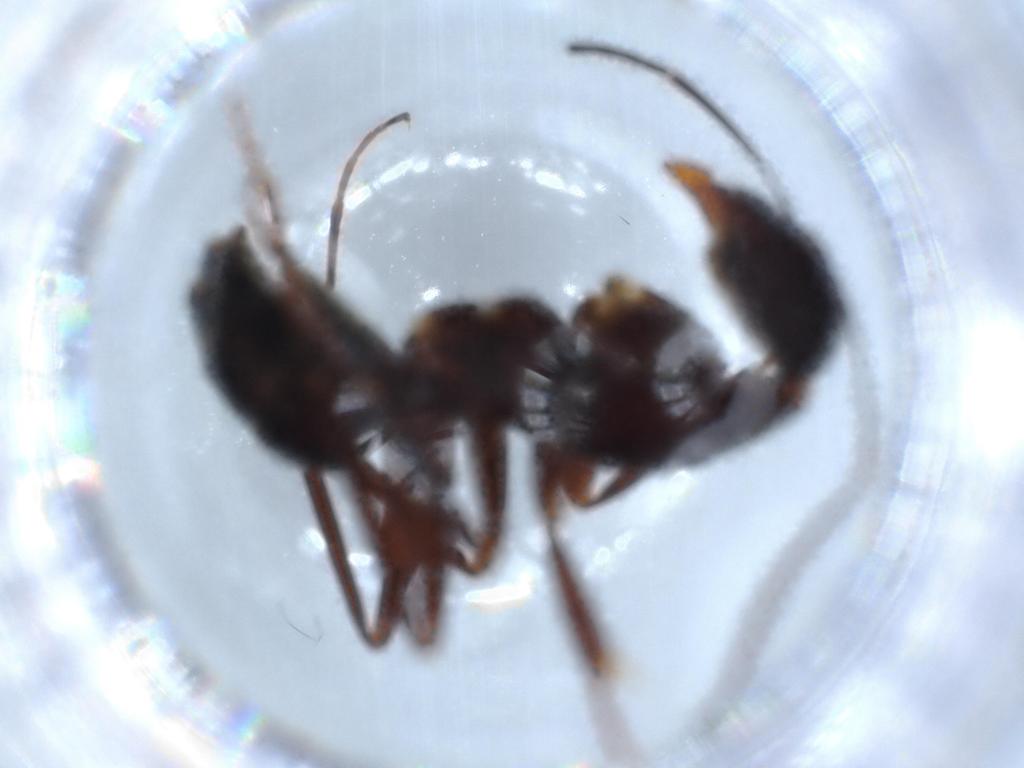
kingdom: Animalia
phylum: Arthropoda
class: Insecta
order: Hymenoptera
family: Formicidae
